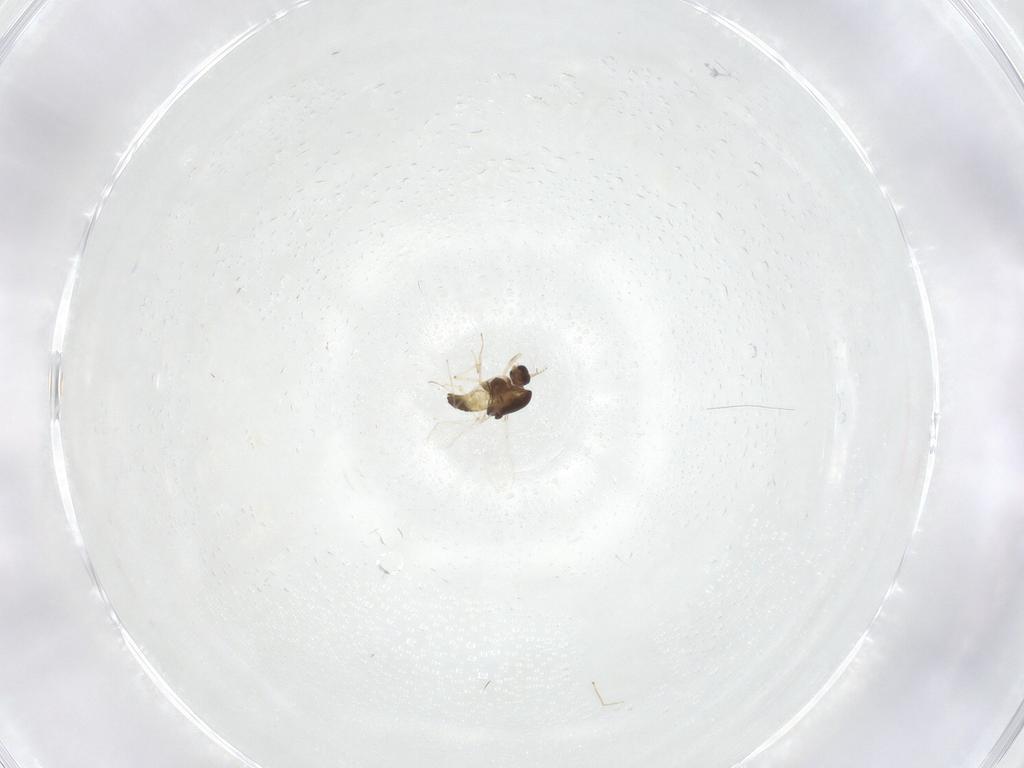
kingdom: Animalia
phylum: Arthropoda
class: Insecta
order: Diptera
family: Chironomidae
